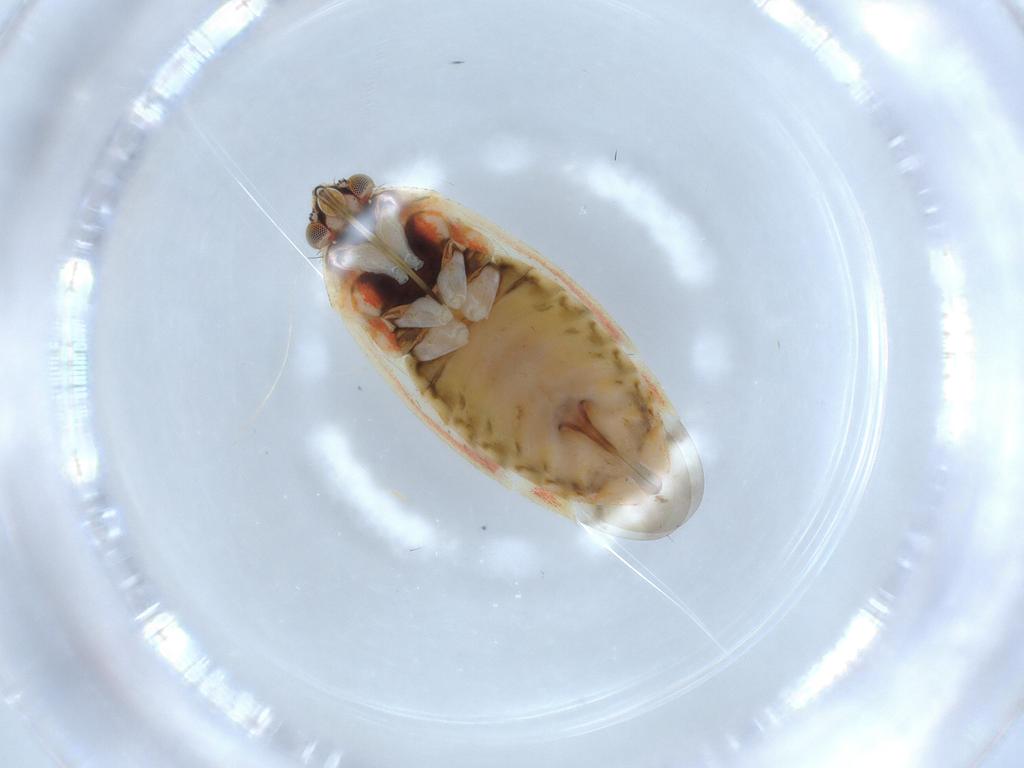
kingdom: Animalia
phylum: Arthropoda
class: Insecta
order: Hemiptera
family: Miridae
